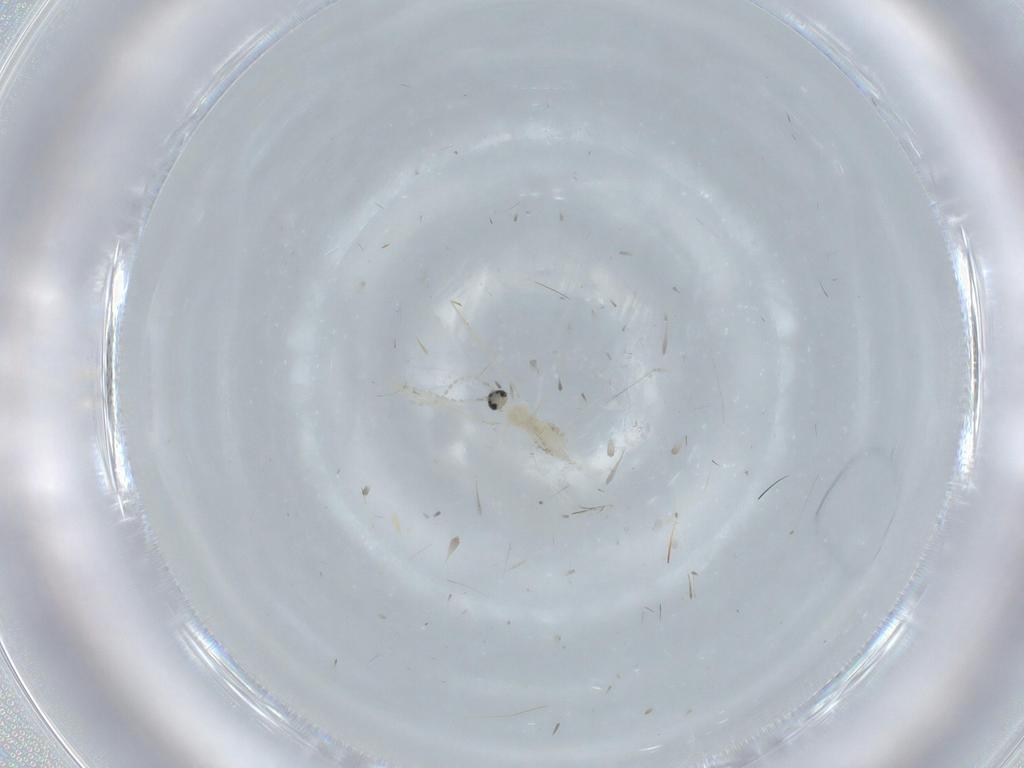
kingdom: Animalia
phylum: Arthropoda
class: Insecta
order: Diptera
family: Cecidomyiidae
